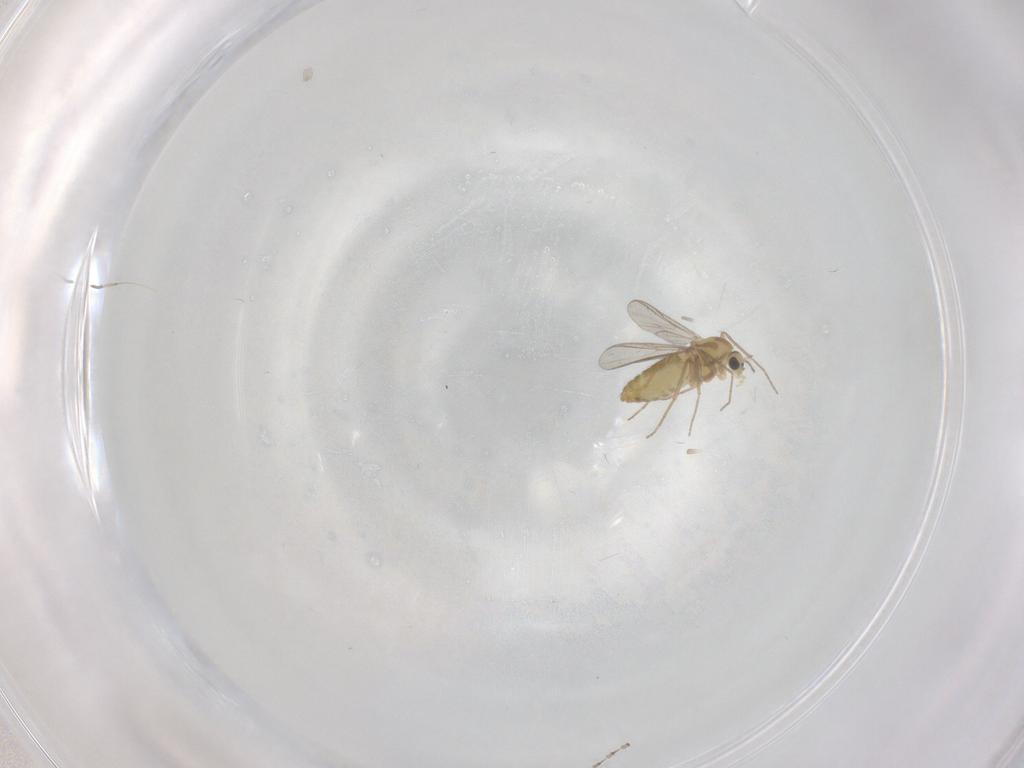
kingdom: Animalia
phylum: Arthropoda
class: Insecta
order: Diptera
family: Chironomidae
